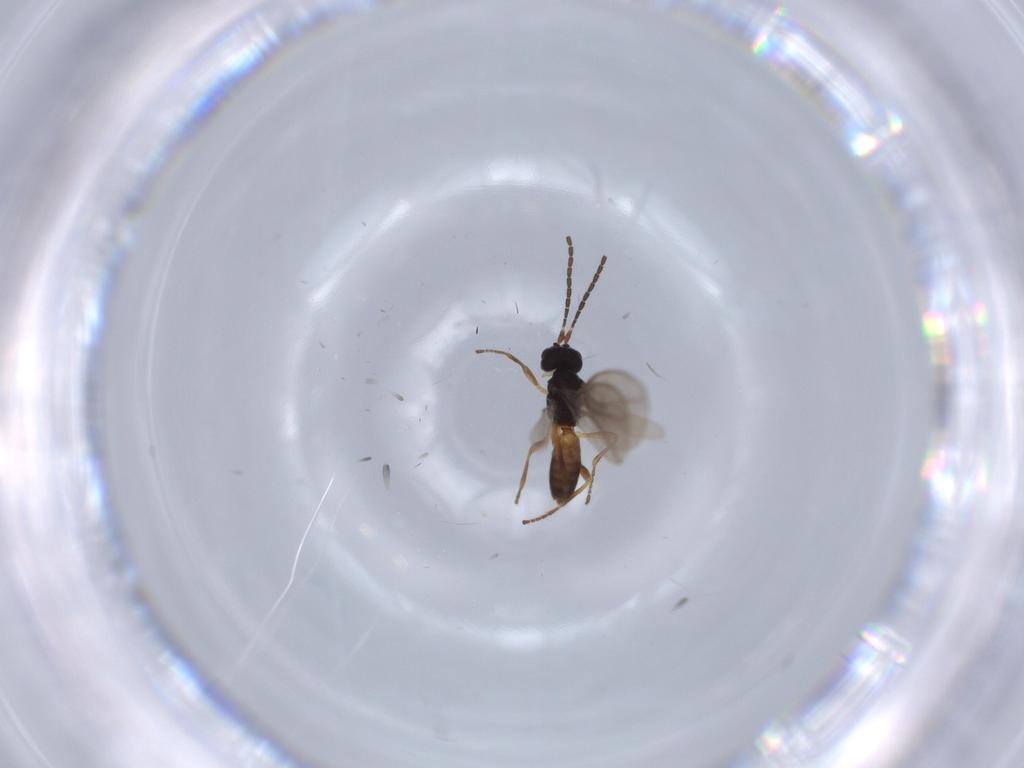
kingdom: Animalia
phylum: Arthropoda
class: Insecta
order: Hymenoptera
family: Braconidae
